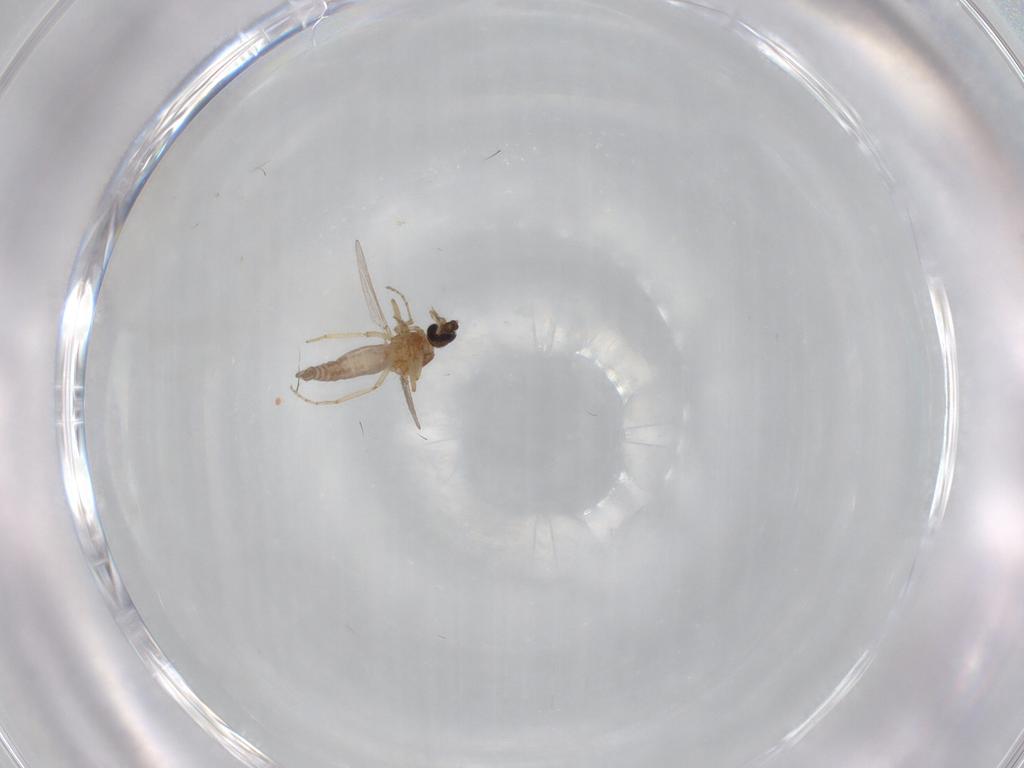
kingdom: Animalia
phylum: Arthropoda
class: Insecta
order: Diptera
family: Ceratopogonidae
